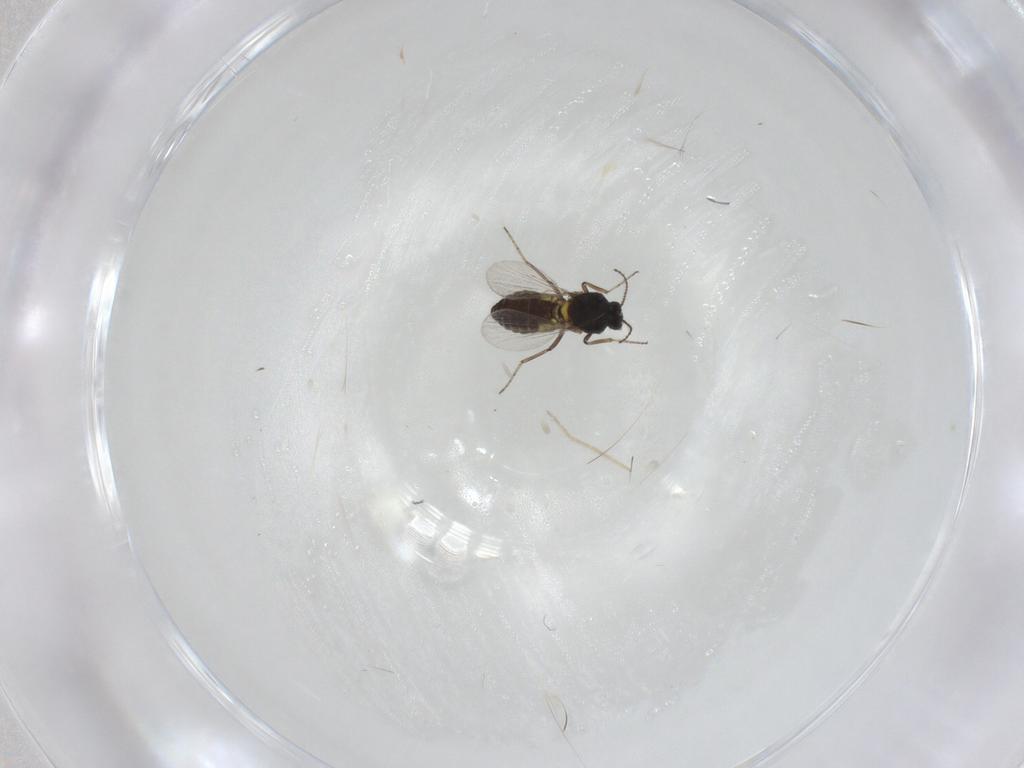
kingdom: Animalia
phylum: Arthropoda
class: Insecta
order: Diptera
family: Ceratopogonidae
